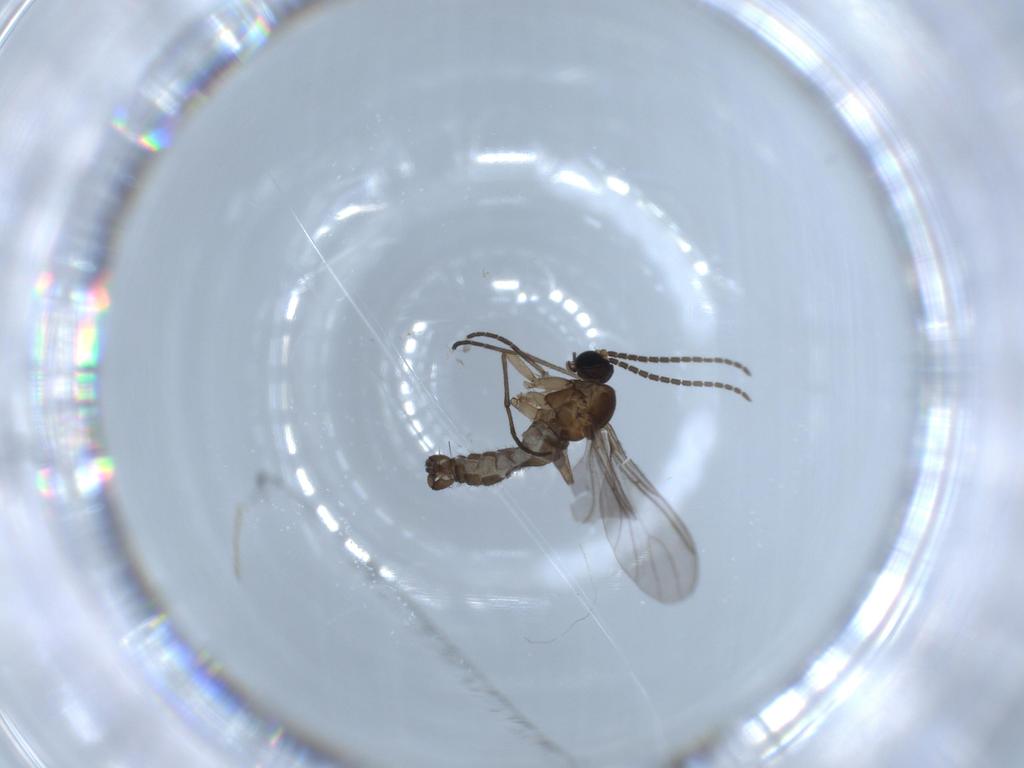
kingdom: Animalia
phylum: Arthropoda
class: Insecta
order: Diptera
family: Sciaridae
